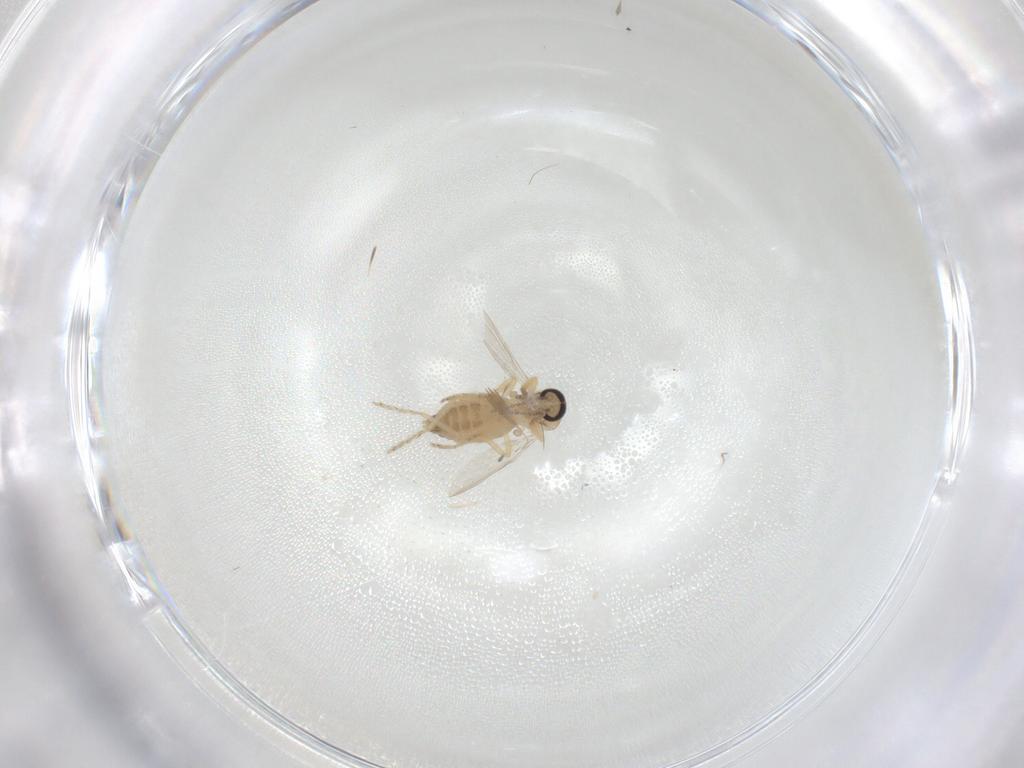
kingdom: Animalia
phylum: Arthropoda
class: Insecta
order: Diptera
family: Ceratopogonidae
